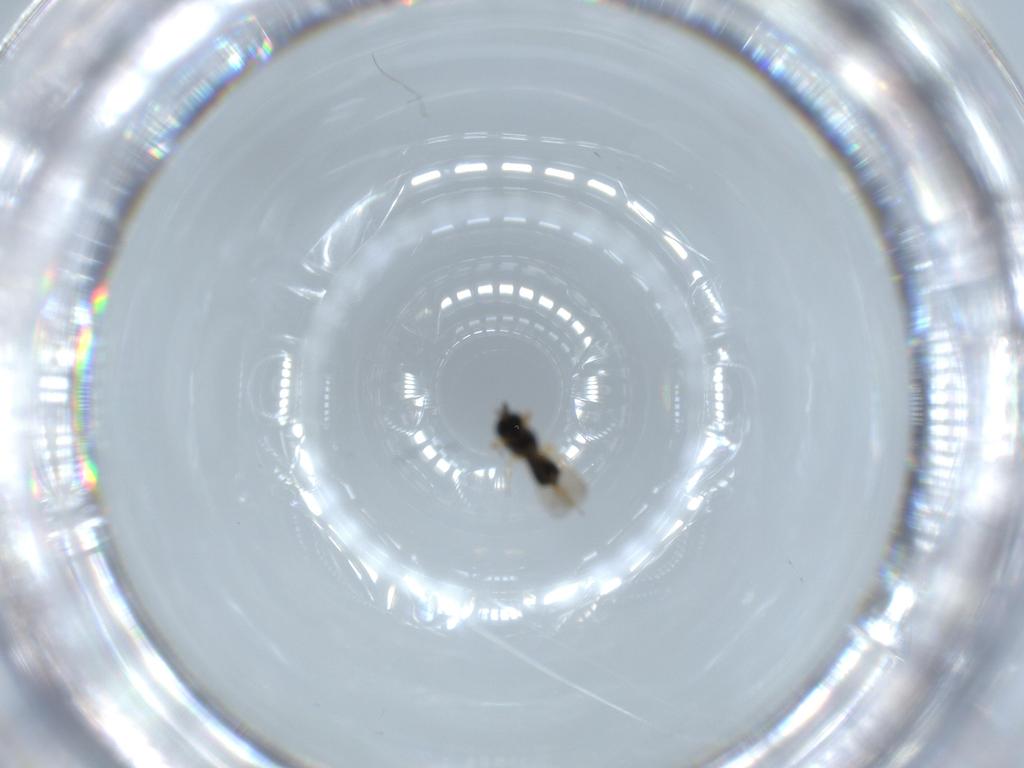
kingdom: Animalia
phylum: Arthropoda
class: Insecta
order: Hymenoptera
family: Scelionidae
